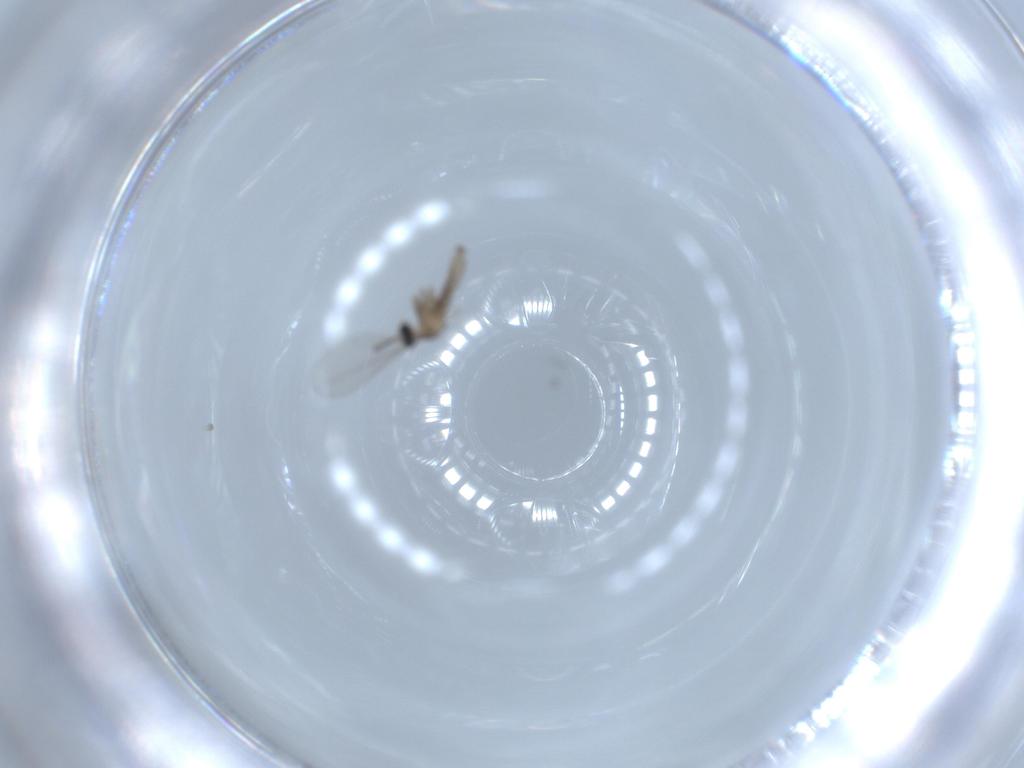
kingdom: Animalia
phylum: Arthropoda
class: Insecta
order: Diptera
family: Cecidomyiidae
